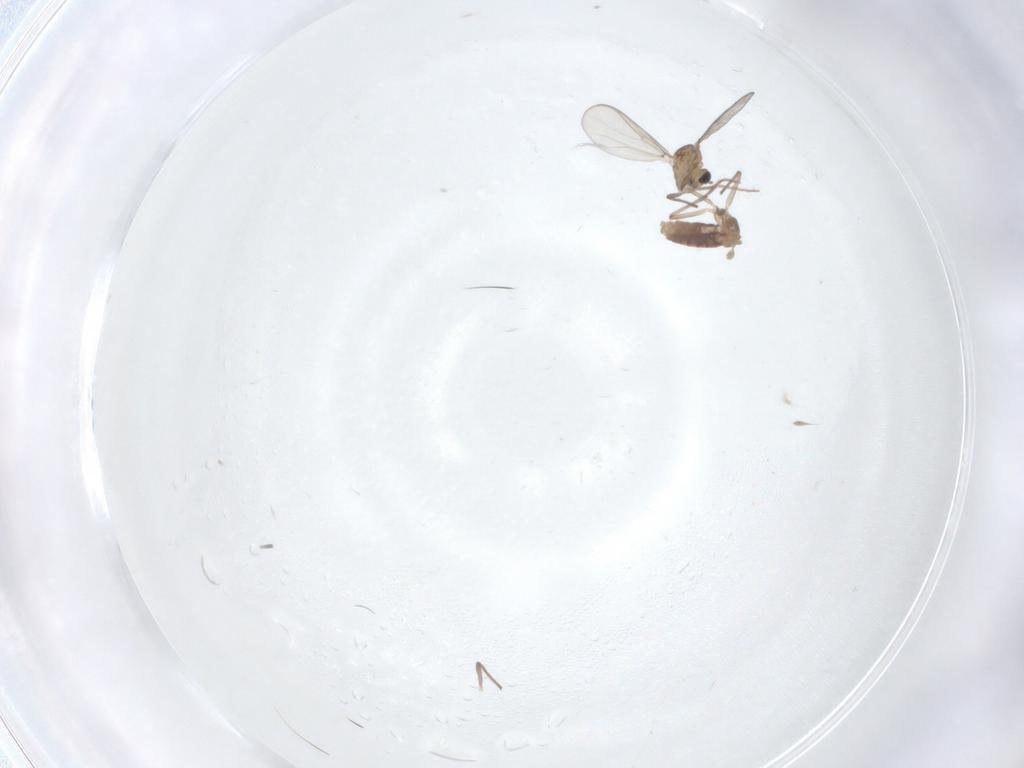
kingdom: Animalia
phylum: Arthropoda
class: Insecta
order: Diptera
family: Chironomidae
